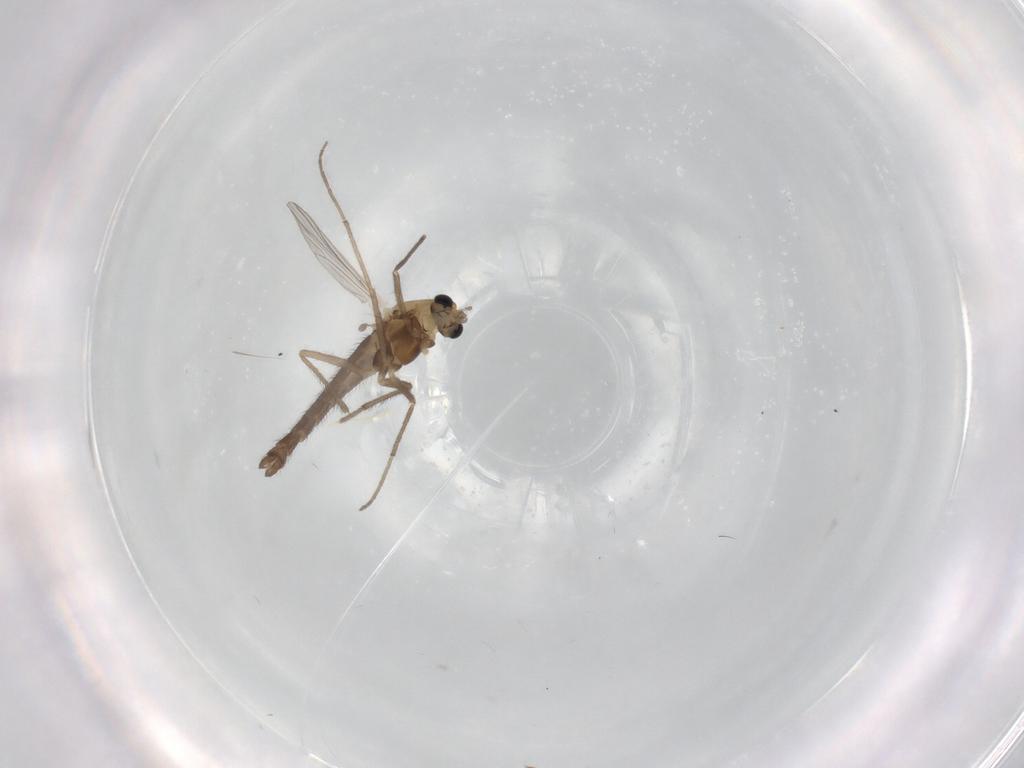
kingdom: Animalia
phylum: Arthropoda
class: Insecta
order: Diptera
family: Chironomidae
